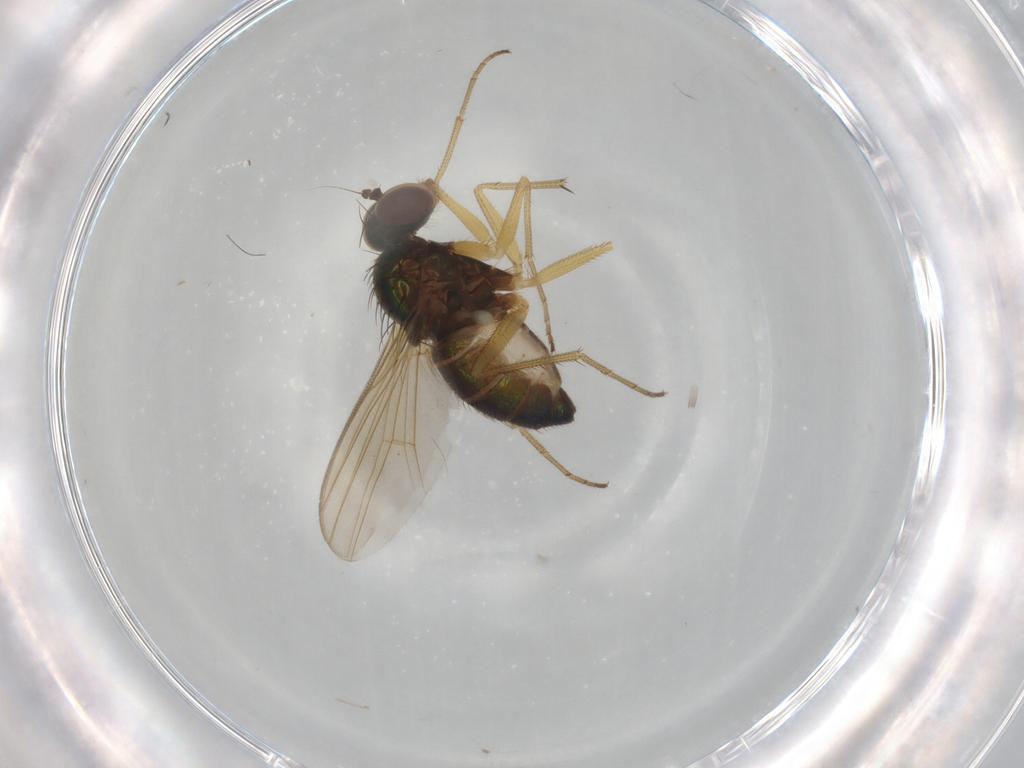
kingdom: Animalia
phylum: Arthropoda
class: Insecta
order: Diptera
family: Dolichopodidae
